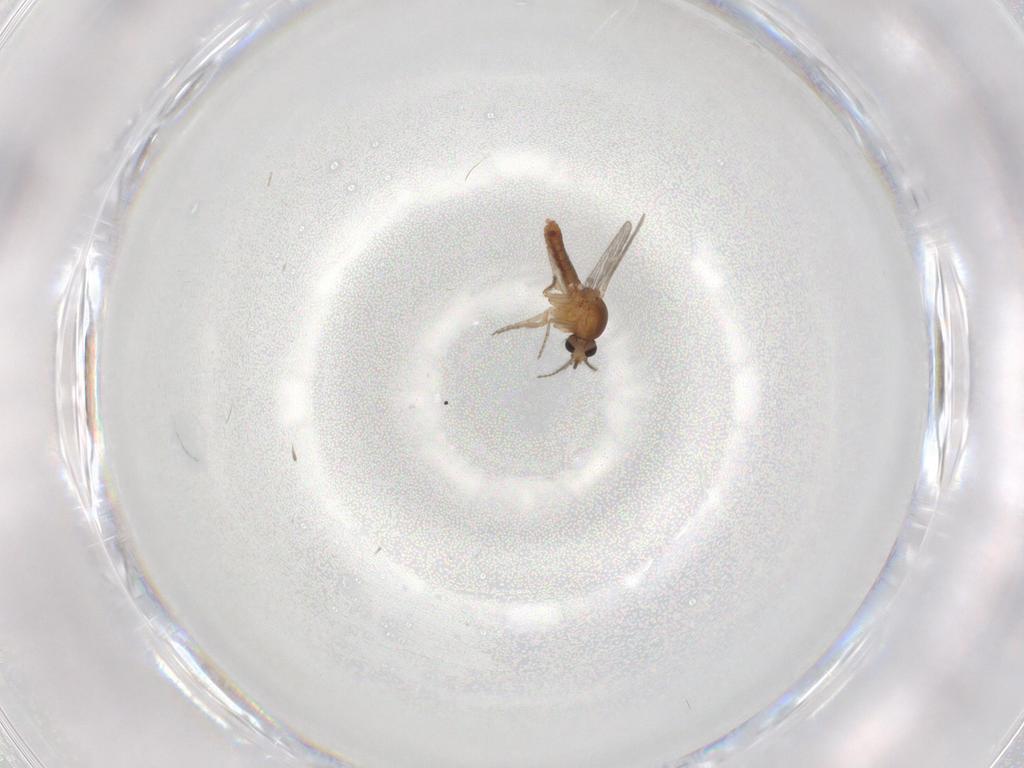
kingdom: Animalia
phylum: Arthropoda
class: Insecta
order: Diptera
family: Ceratopogonidae
